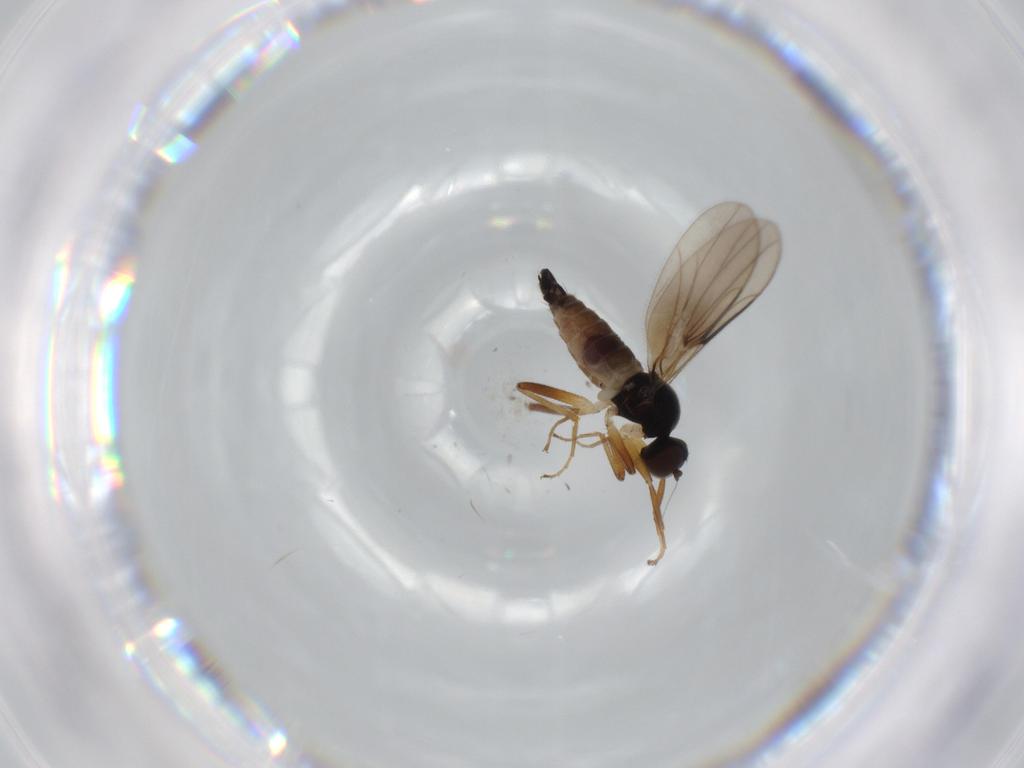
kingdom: Animalia
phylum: Arthropoda
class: Insecta
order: Diptera
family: Hybotidae
